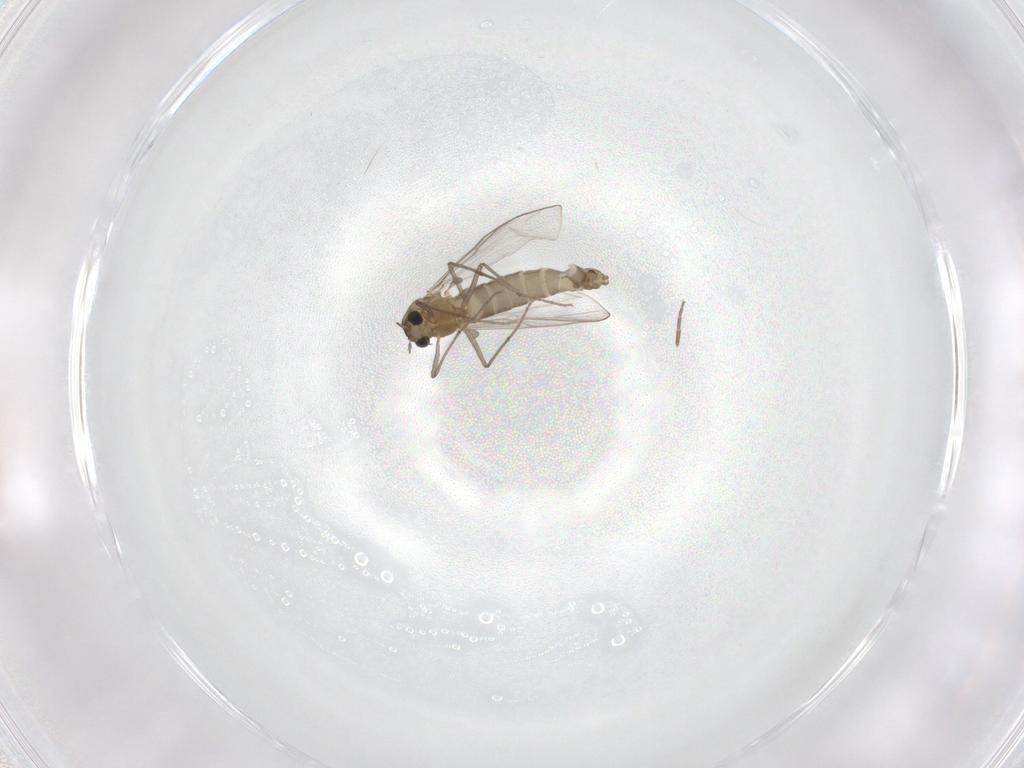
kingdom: Animalia
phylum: Arthropoda
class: Insecta
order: Diptera
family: Chironomidae
